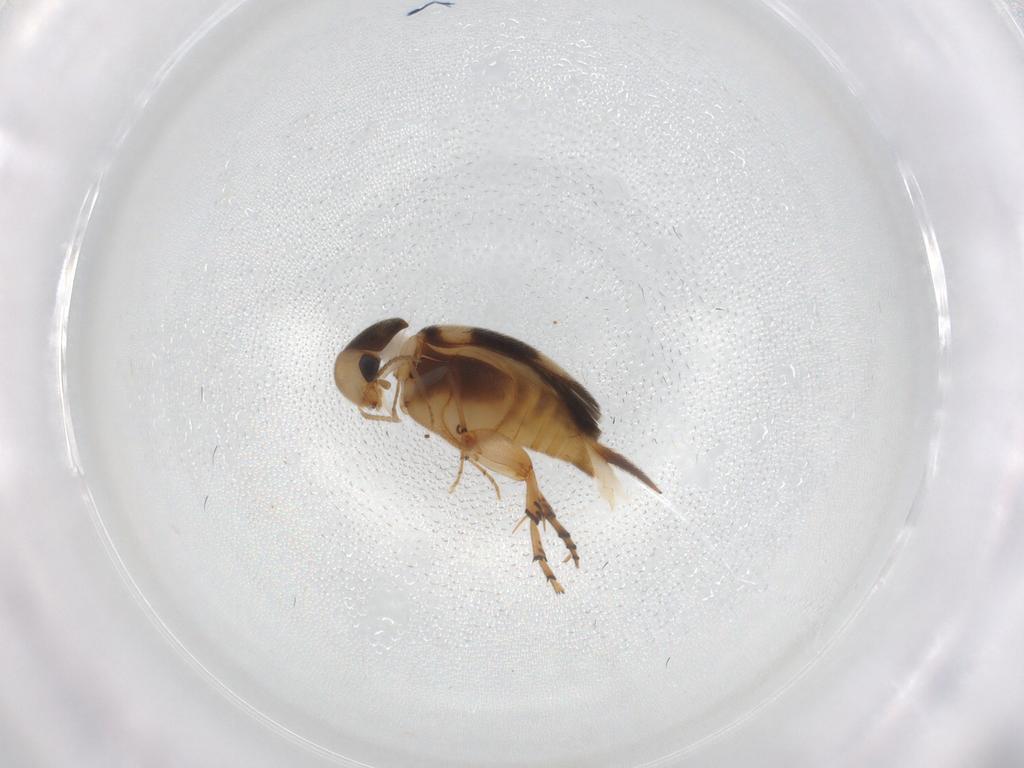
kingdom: Animalia
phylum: Arthropoda
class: Insecta
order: Coleoptera
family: Mordellidae
